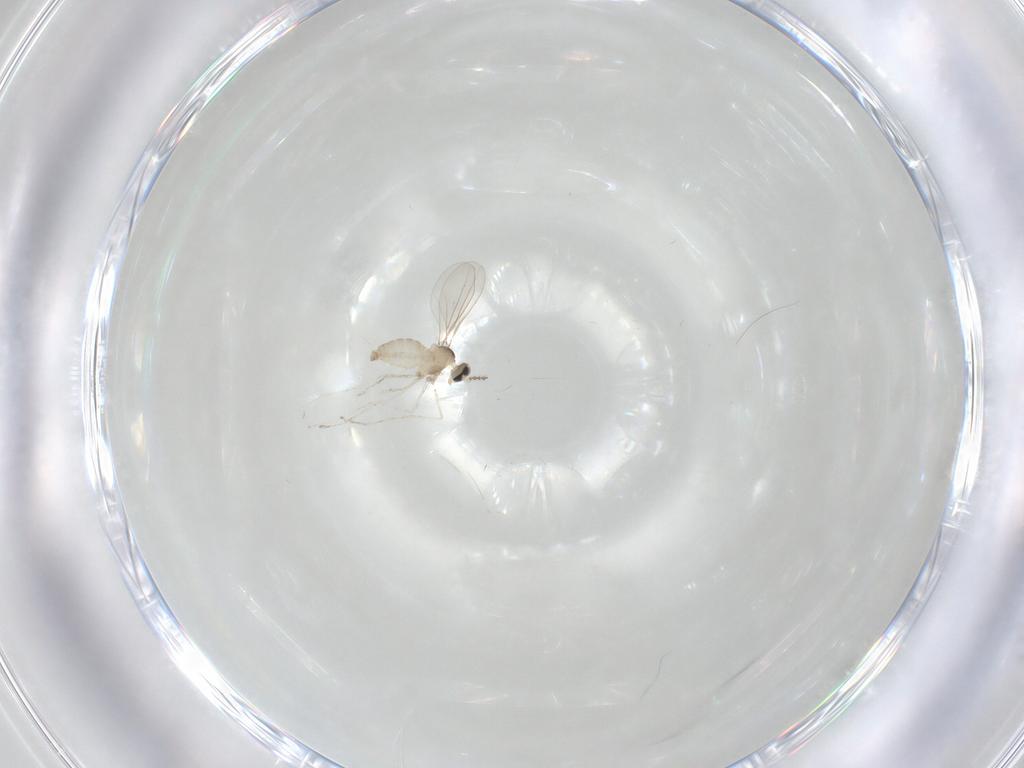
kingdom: Animalia
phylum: Arthropoda
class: Insecta
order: Diptera
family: Cecidomyiidae
